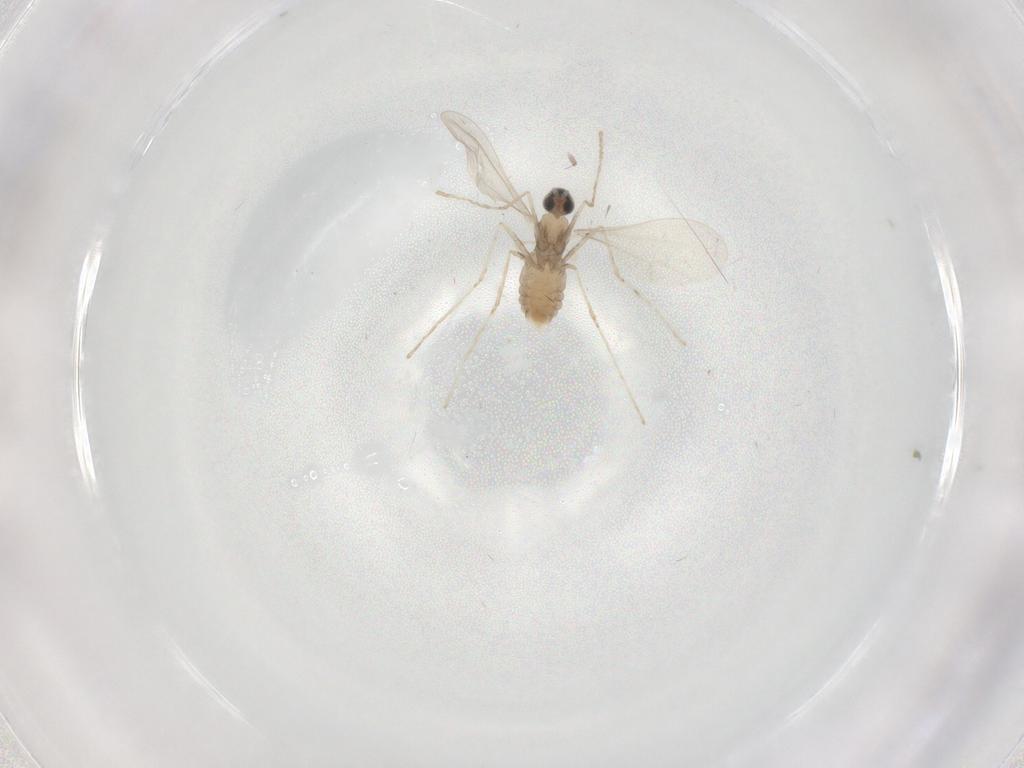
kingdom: Animalia
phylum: Arthropoda
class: Insecta
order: Diptera
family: Cecidomyiidae
